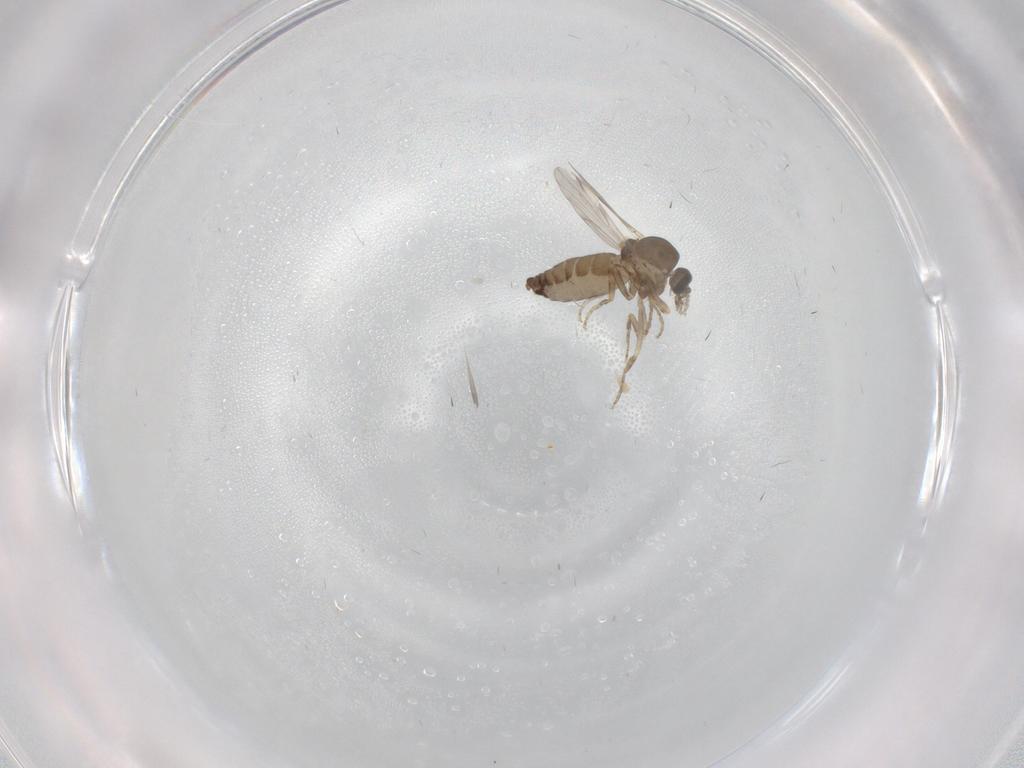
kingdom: Animalia
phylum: Arthropoda
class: Insecta
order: Diptera
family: Ceratopogonidae
